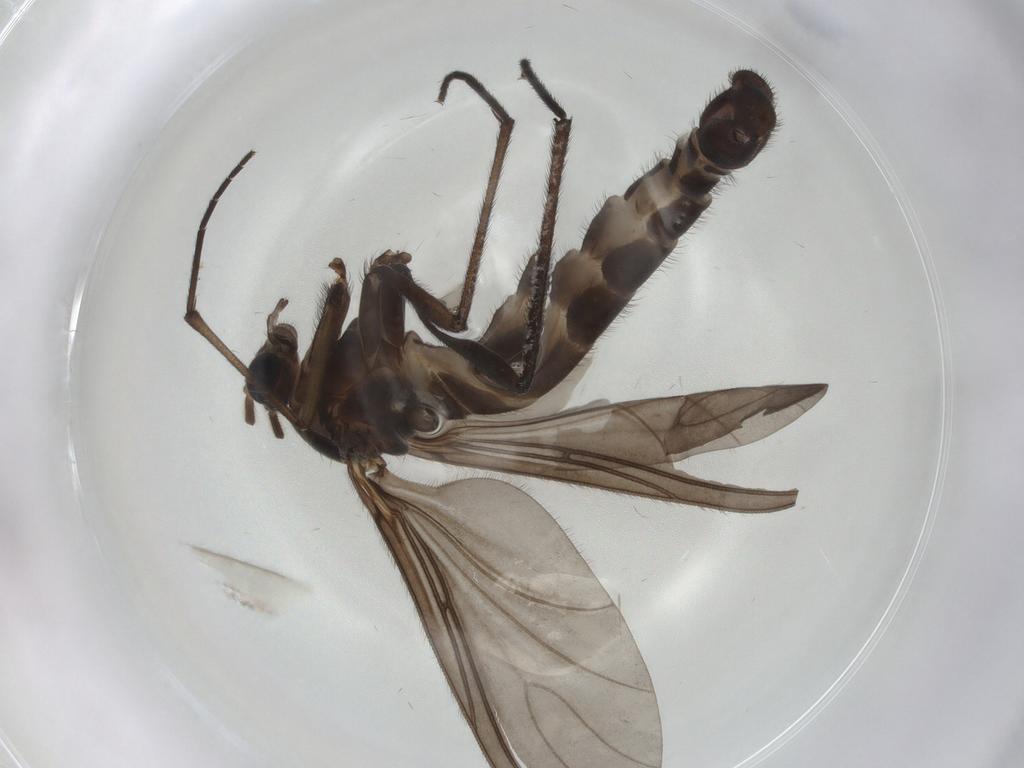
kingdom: Animalia
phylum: Arthropoda
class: Insecta
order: Diptera
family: Sciaridae
